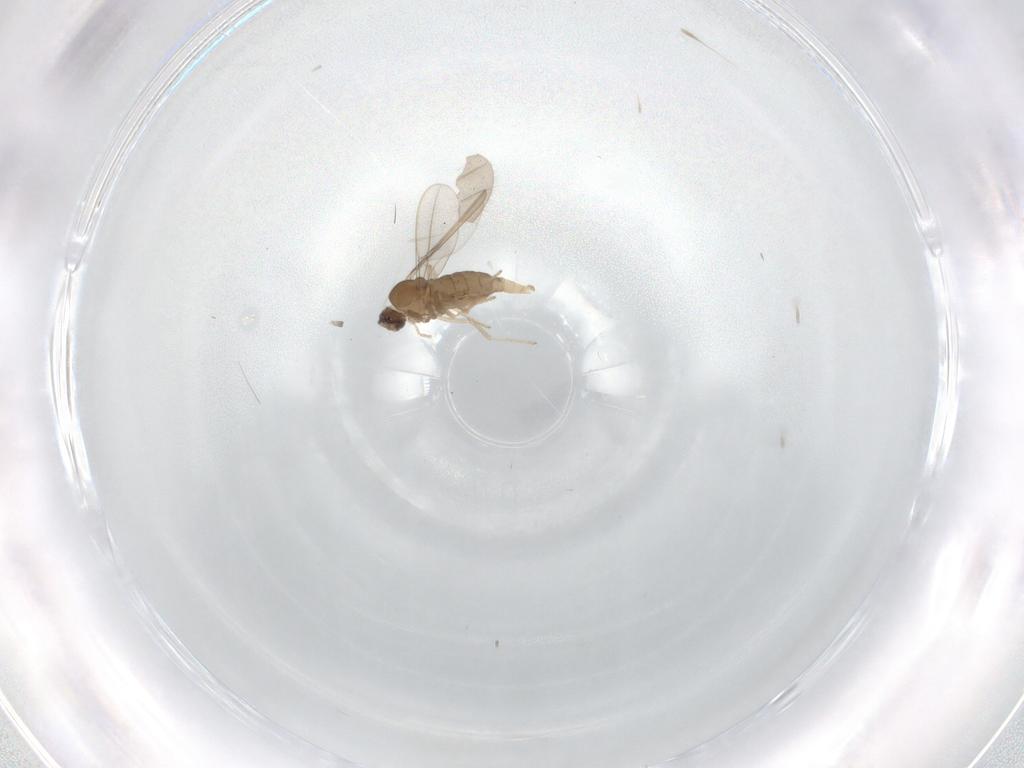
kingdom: Animalia
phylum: Arthropoda
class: Insecta
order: Diptera
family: Cecidomyiidae
